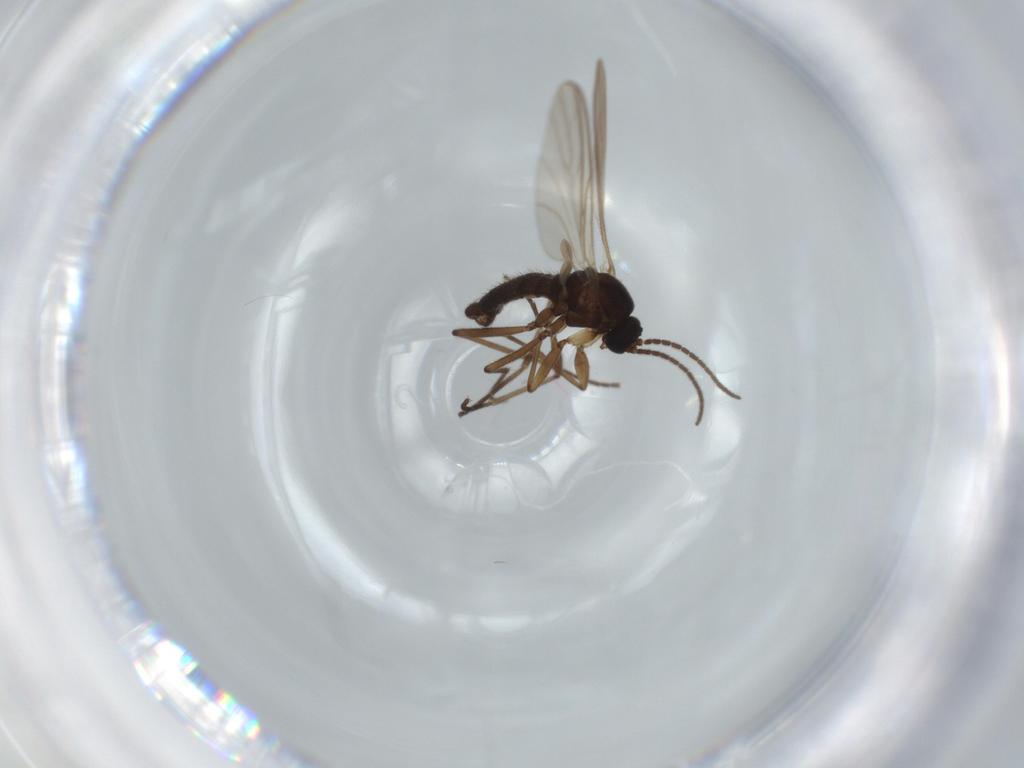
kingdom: Animalia
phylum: Arthropoda
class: Insecta
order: Diptera
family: Sciaridae
